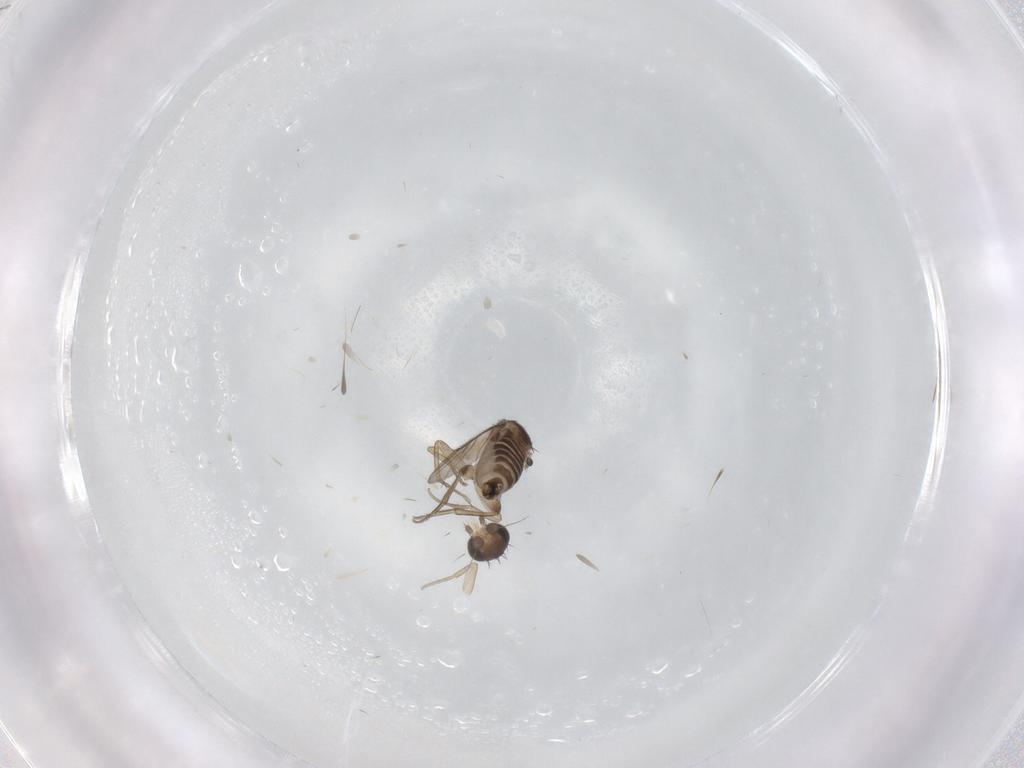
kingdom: Animalia
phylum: Arthropoda
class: Insecta
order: Diptera
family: Phoridae
